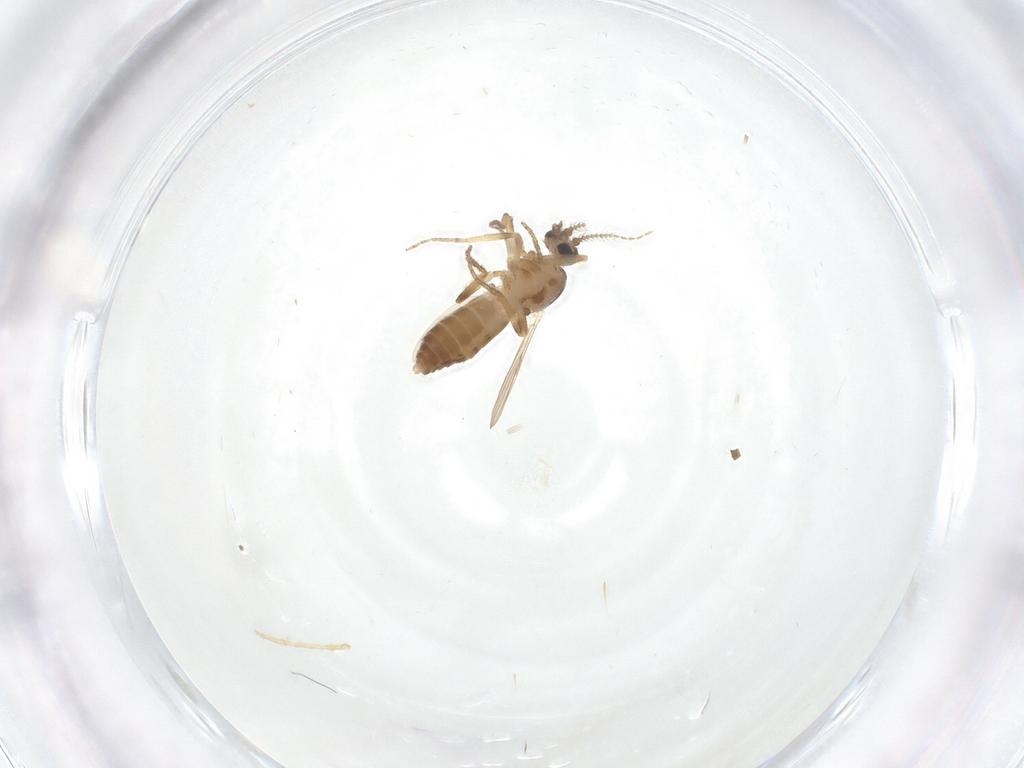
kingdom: Animalia
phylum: Arthropoda
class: Insecta
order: Diptera
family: Ceratopogonidae
